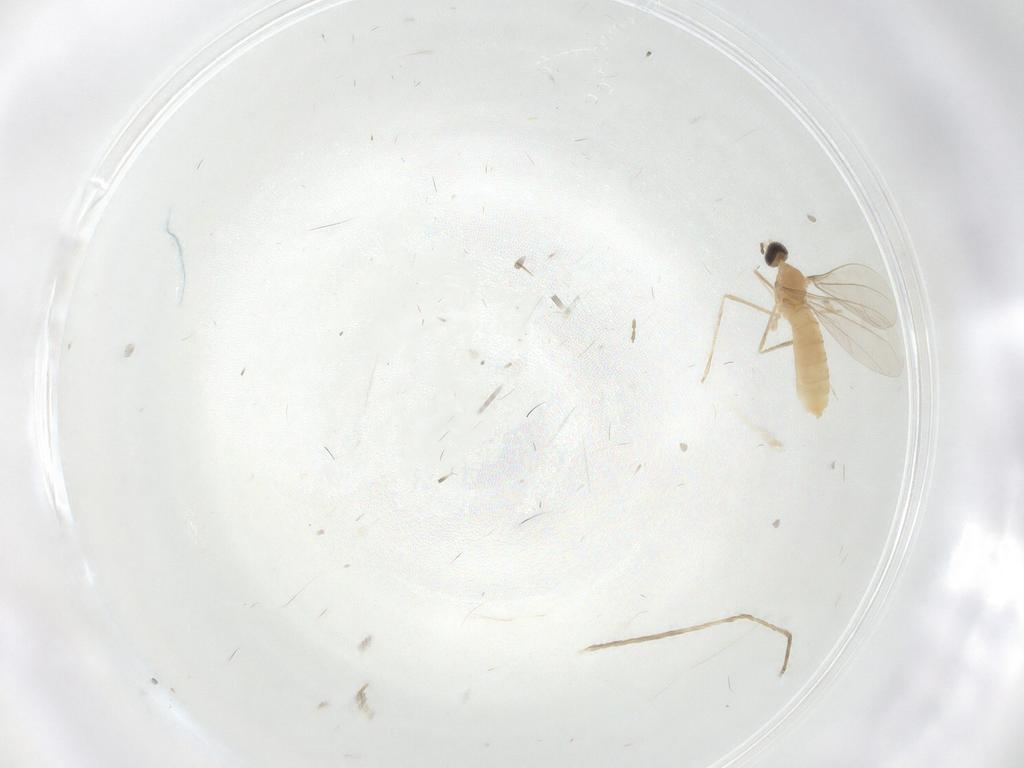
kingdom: Animalia
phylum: Arthropoda
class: Insecta
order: Diptera
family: Cecidomyiidae
